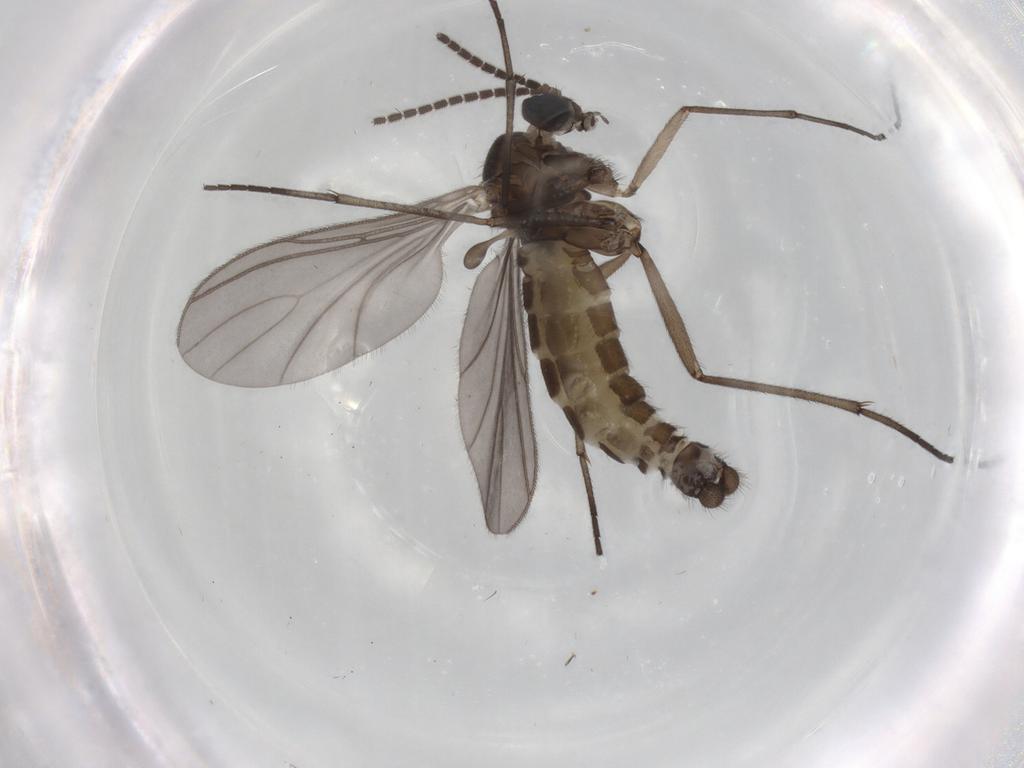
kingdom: Animalia
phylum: Arthropoda
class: Insecta
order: Diptera
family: Sciaridae
